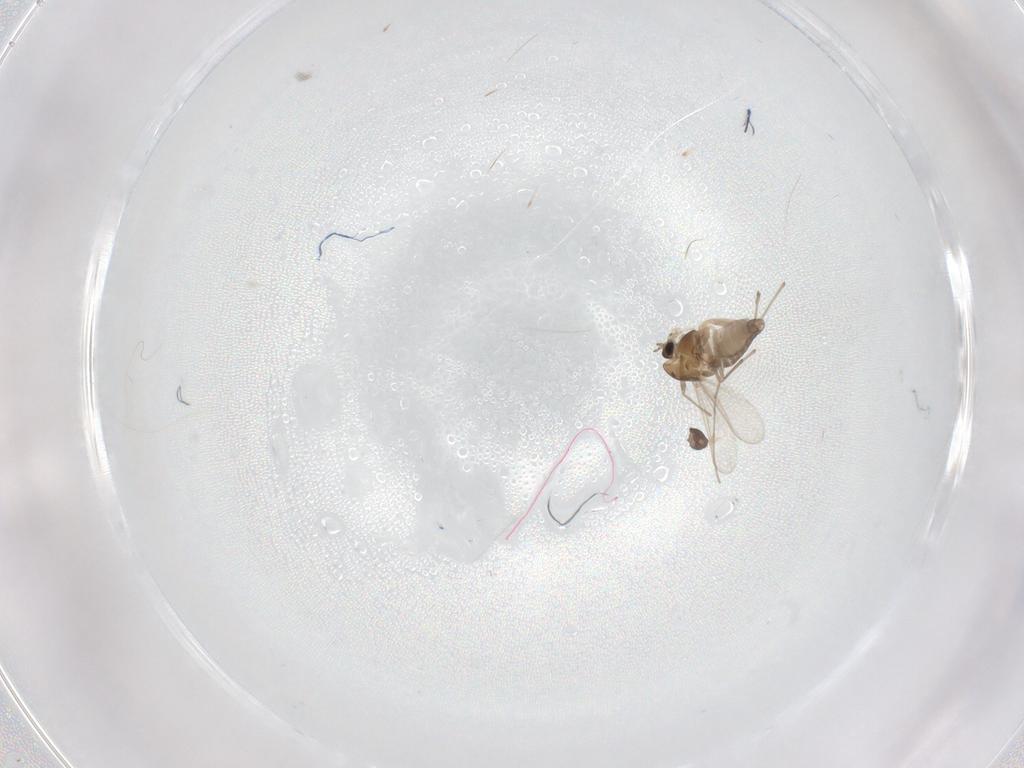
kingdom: Animalia
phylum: Arthropoda
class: Insecta
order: Diptera
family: Chironomidae
